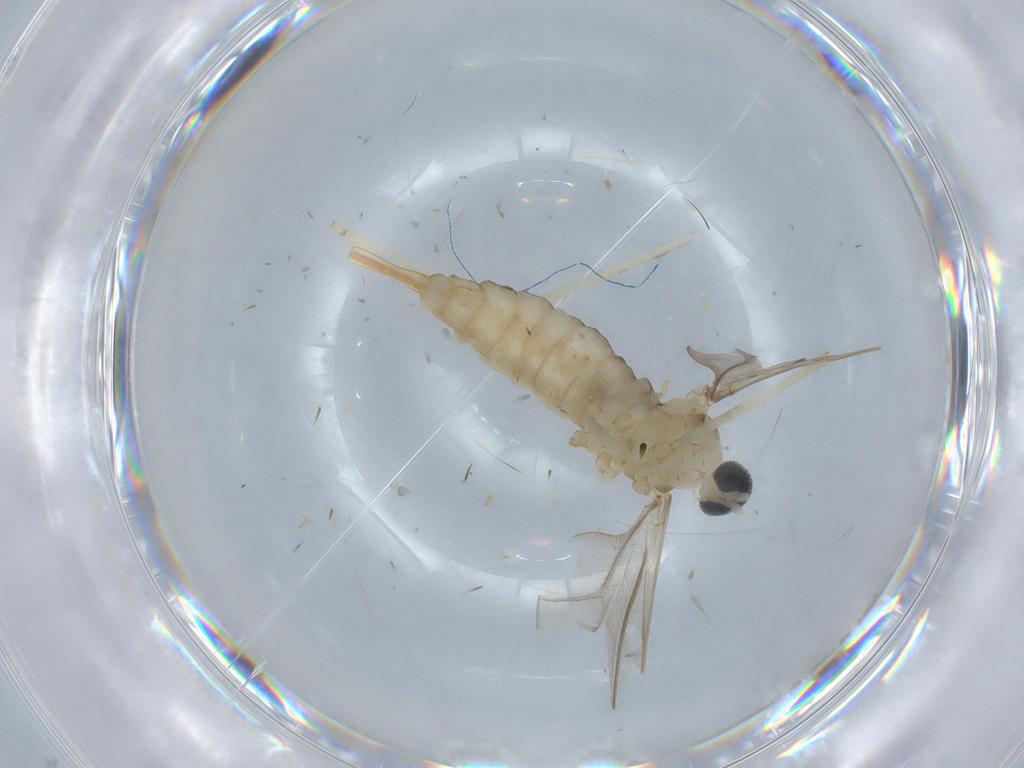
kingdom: Animalia
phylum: Arthropoda
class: Insecta
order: Diptera
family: Cecidomyiidae
